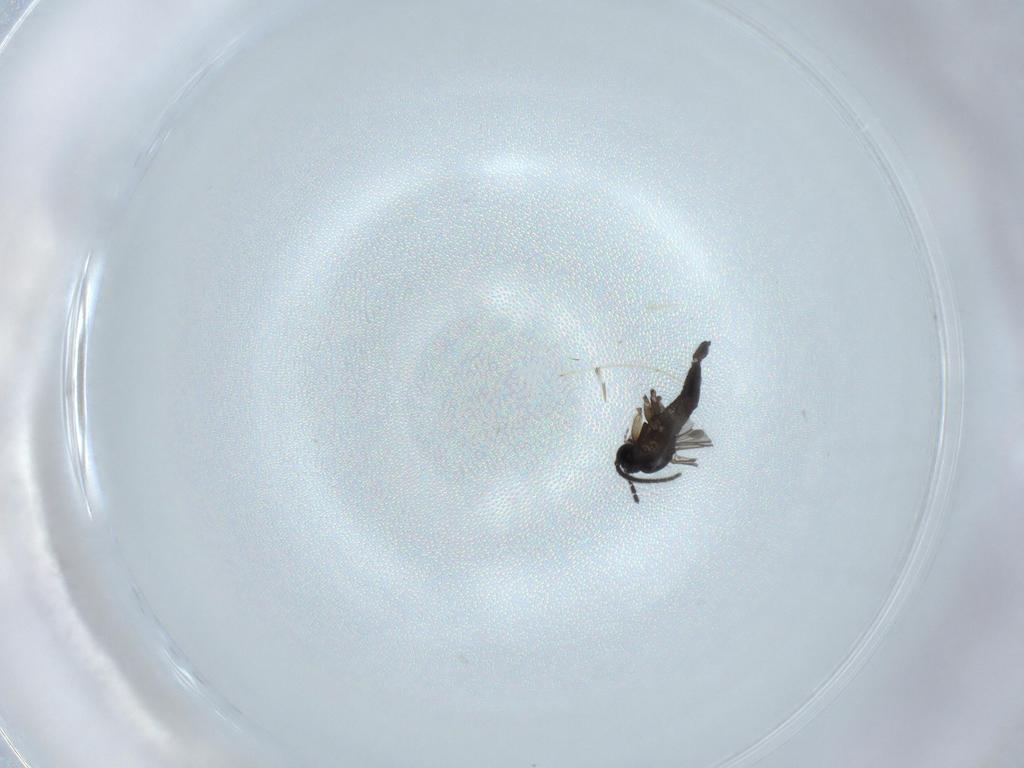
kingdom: Animalia
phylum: Arthropoda
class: Insecta
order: Diptera
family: Sciaridae
